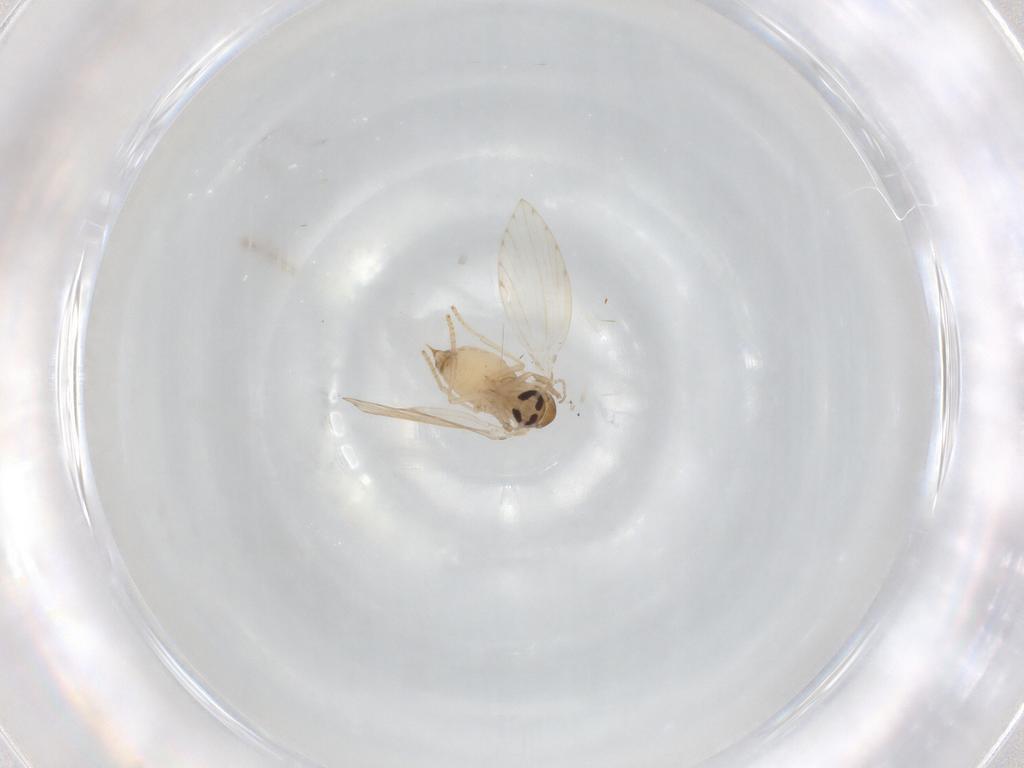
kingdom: Animalia
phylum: Arthropoda
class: Insecta
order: Diptera
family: Psychodidae
